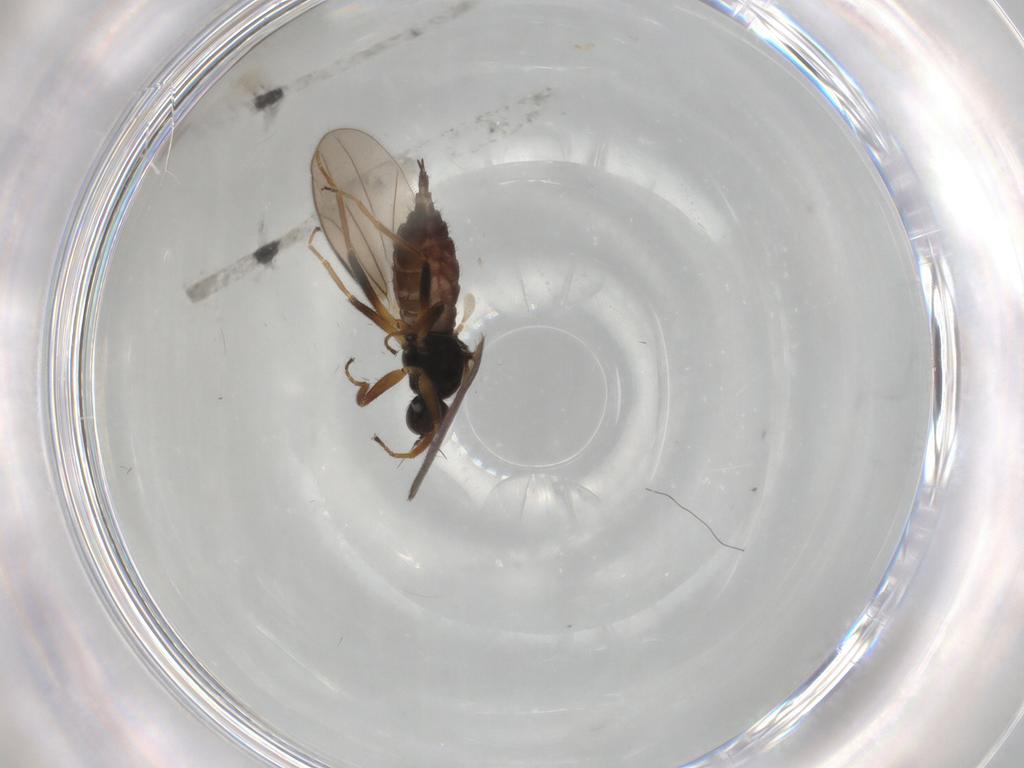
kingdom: Animalia
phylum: Arthropoda
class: Insecta
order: Diptera
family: Hybotidae
